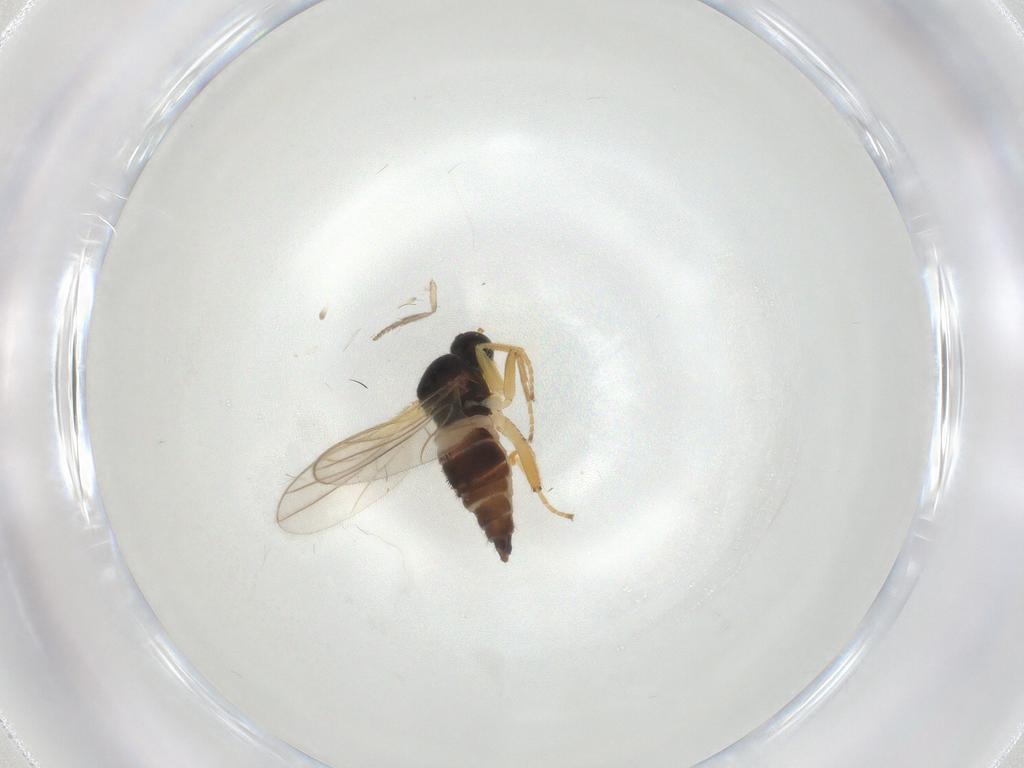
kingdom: Animalia
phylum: Arthropoda
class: Insecta
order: Diptera
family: Hybotidae
